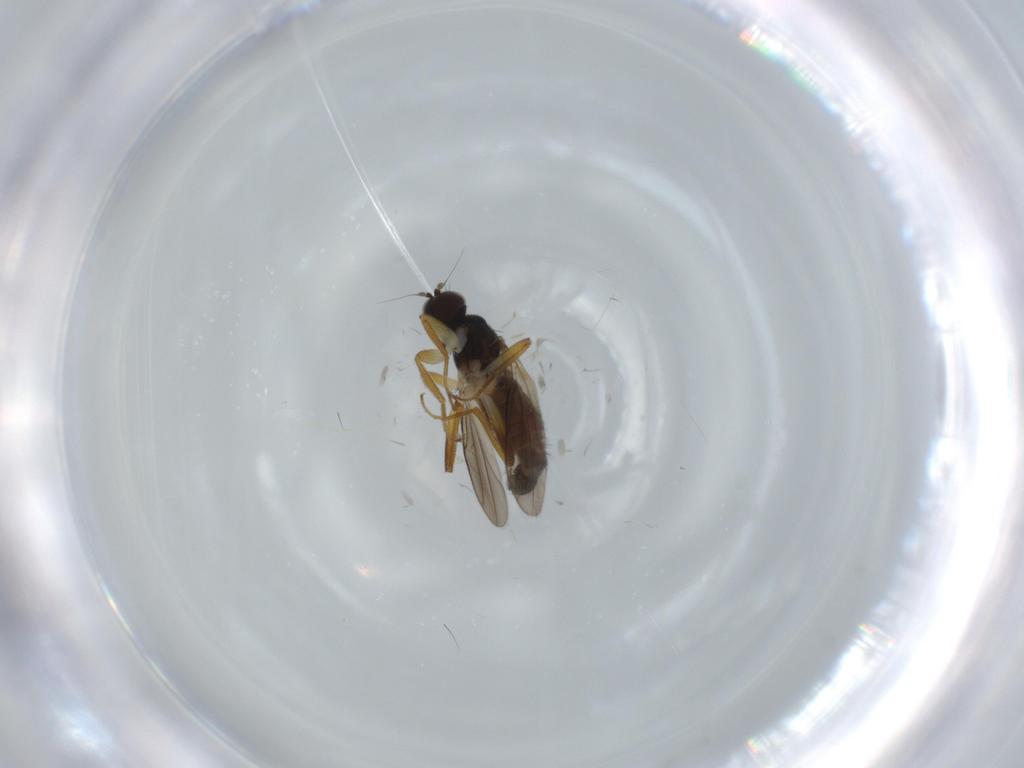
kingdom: Animalia
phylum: Arthropoda
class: Insecta
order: Diptera
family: Hybotidae
